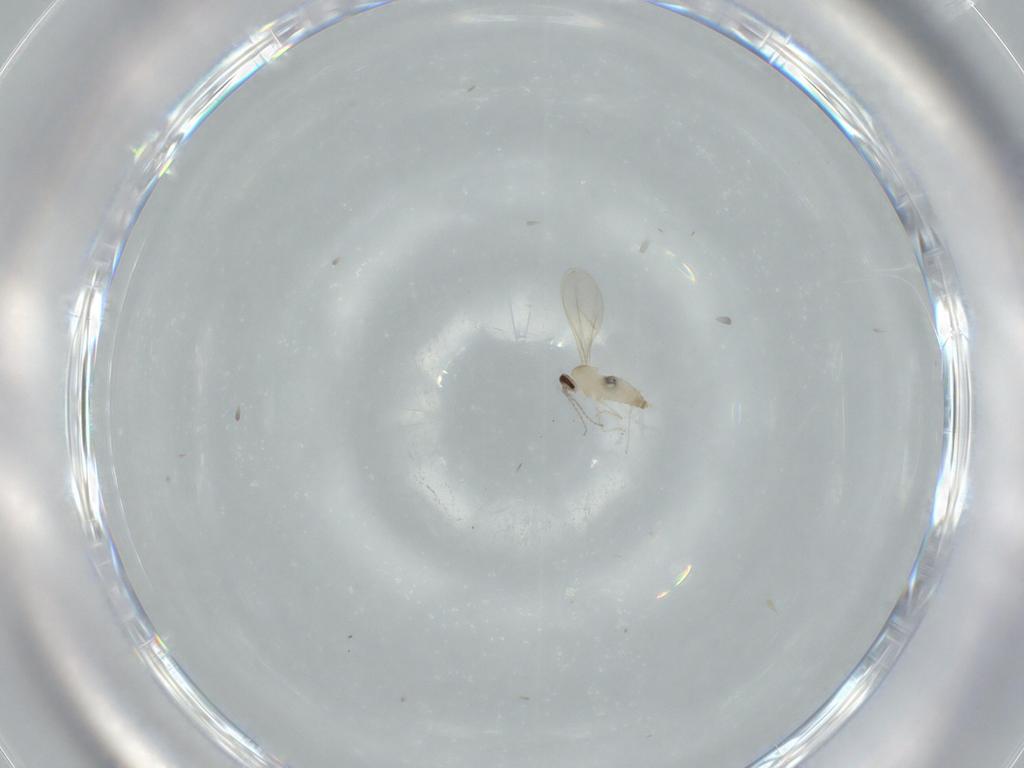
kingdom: Animalia
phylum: Arthropoda
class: Insecta
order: Diptera
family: Cecidomyiidae
